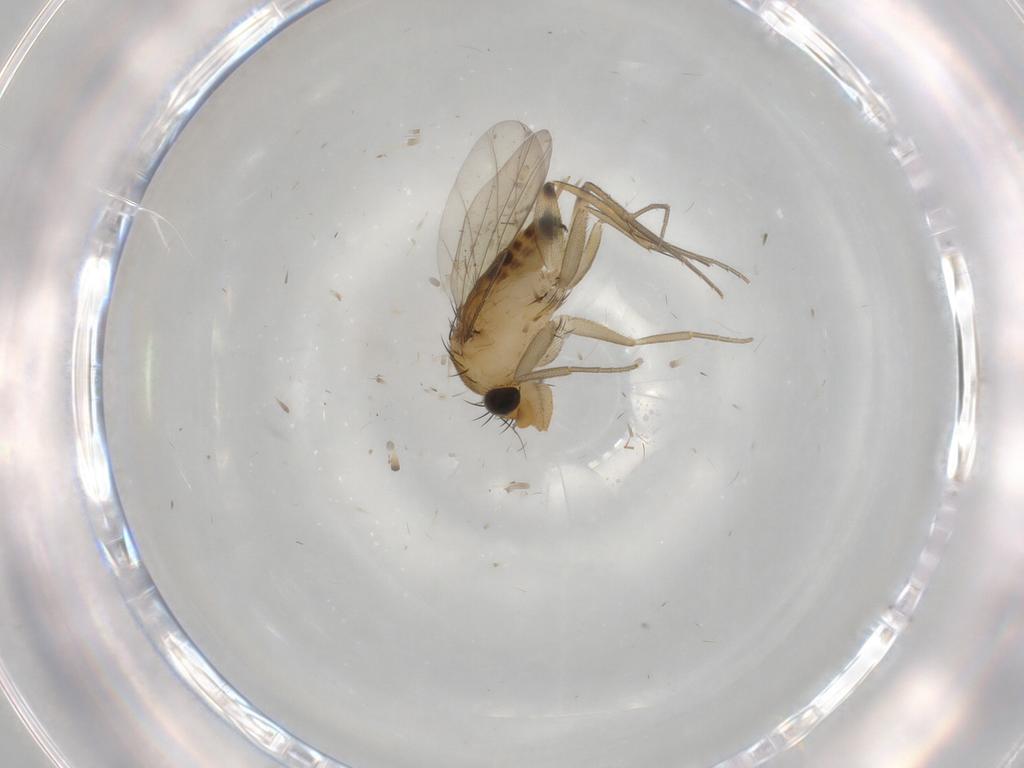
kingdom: Animalia
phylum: Arthropoda
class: Insecta
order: Diptera
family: Phoridae
